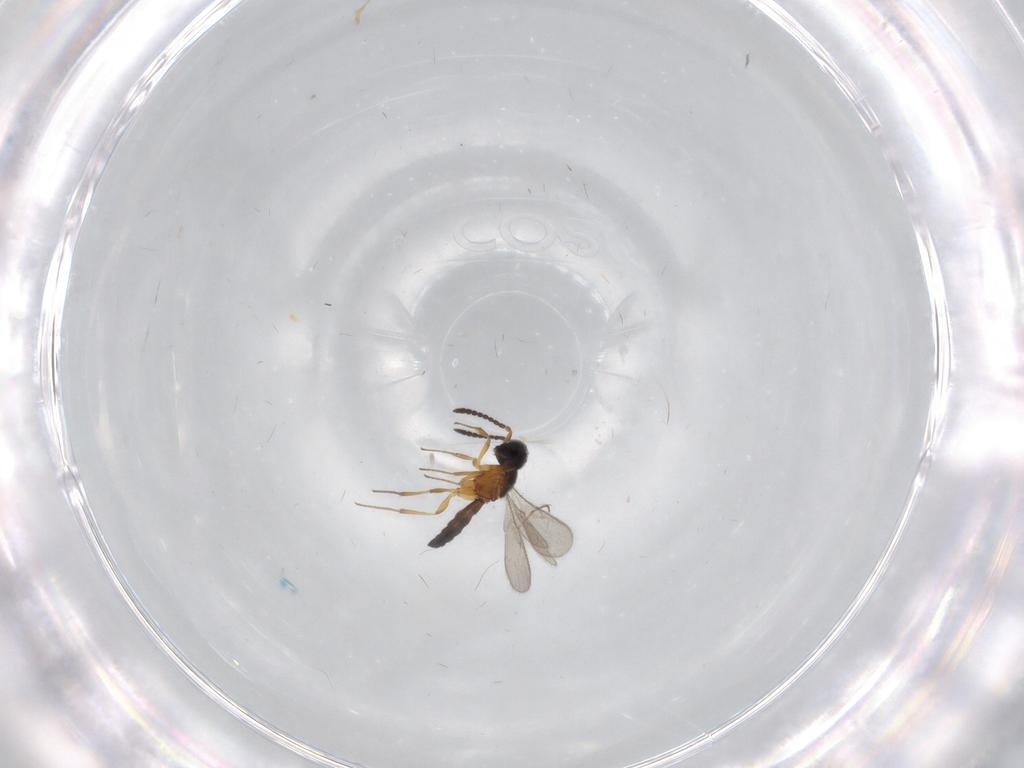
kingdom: Animalia
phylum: Arthropoda
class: Insecta
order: Hymenoptera
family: Scelionidae
